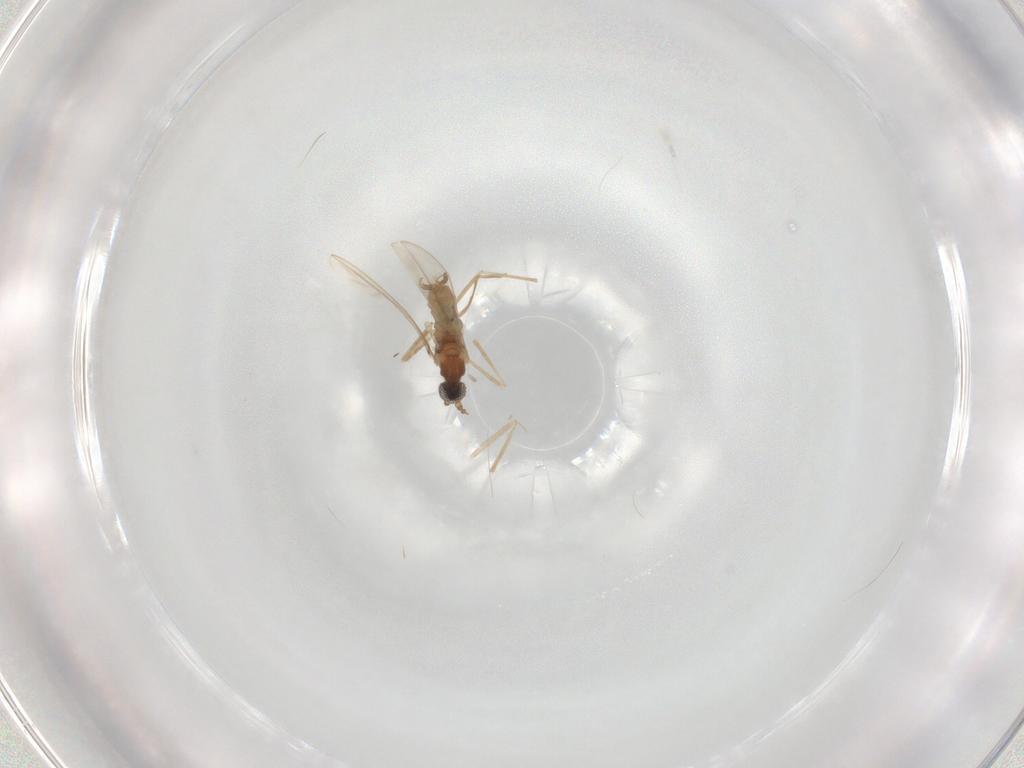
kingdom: Animalia
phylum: Arthropoda
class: Insecta
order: Diptera
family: Cecidomyiidae
